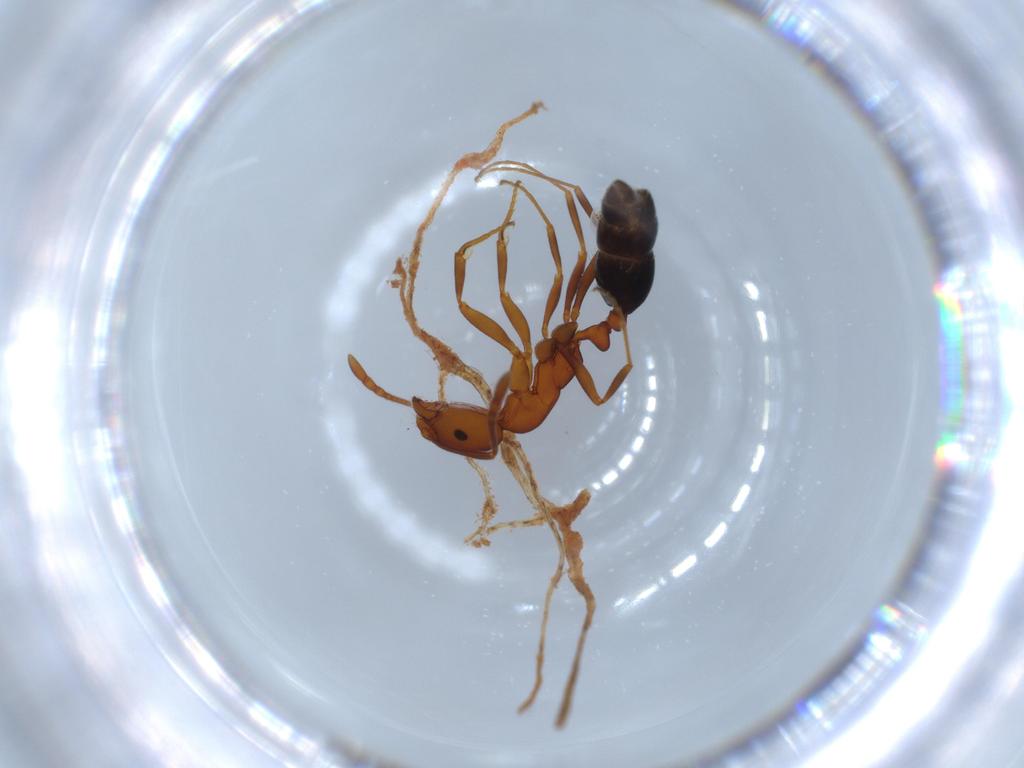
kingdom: Animalia
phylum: Arthropoda
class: Insecta
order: Hymenoptera
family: Formicidae
